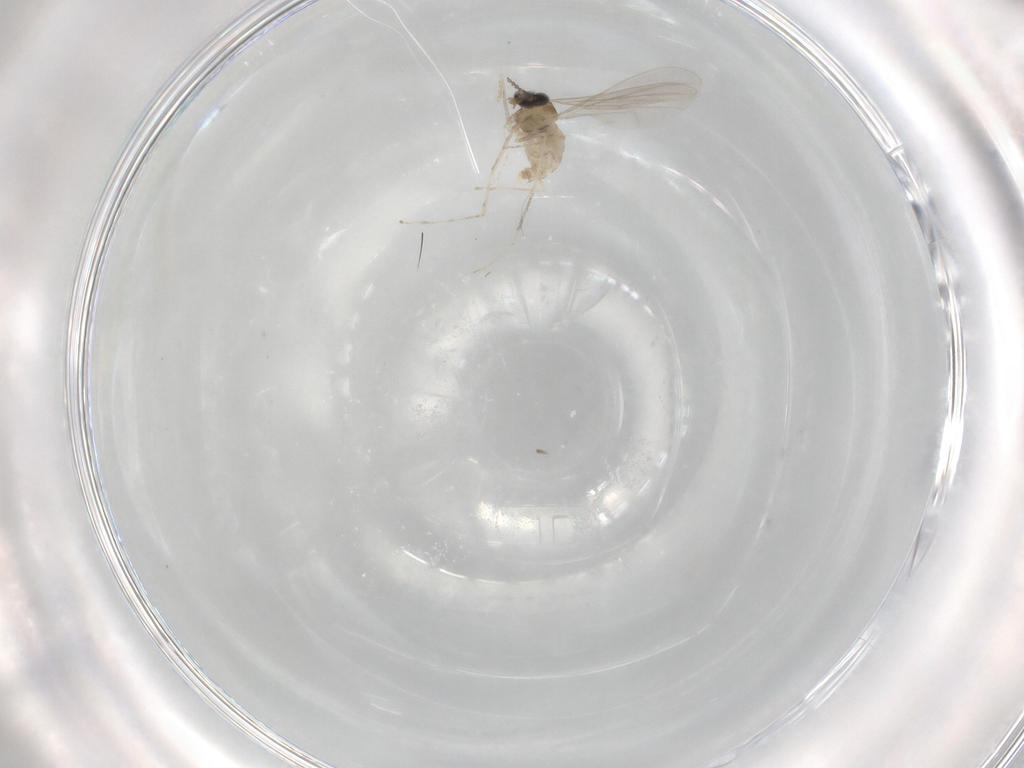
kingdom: Animalia
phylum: Arthropoda
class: Insecta
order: Diptera
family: Cecidomyiidae
